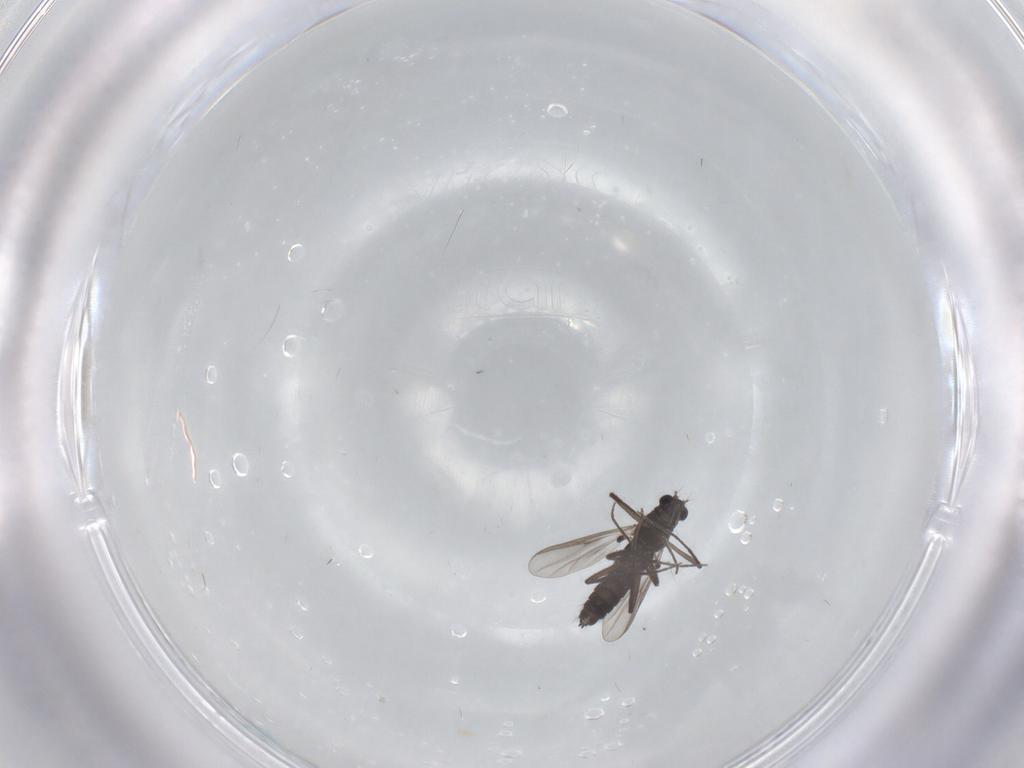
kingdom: Animalia
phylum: Arthropoda
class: Insecta
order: Diptera
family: Chironomidae
